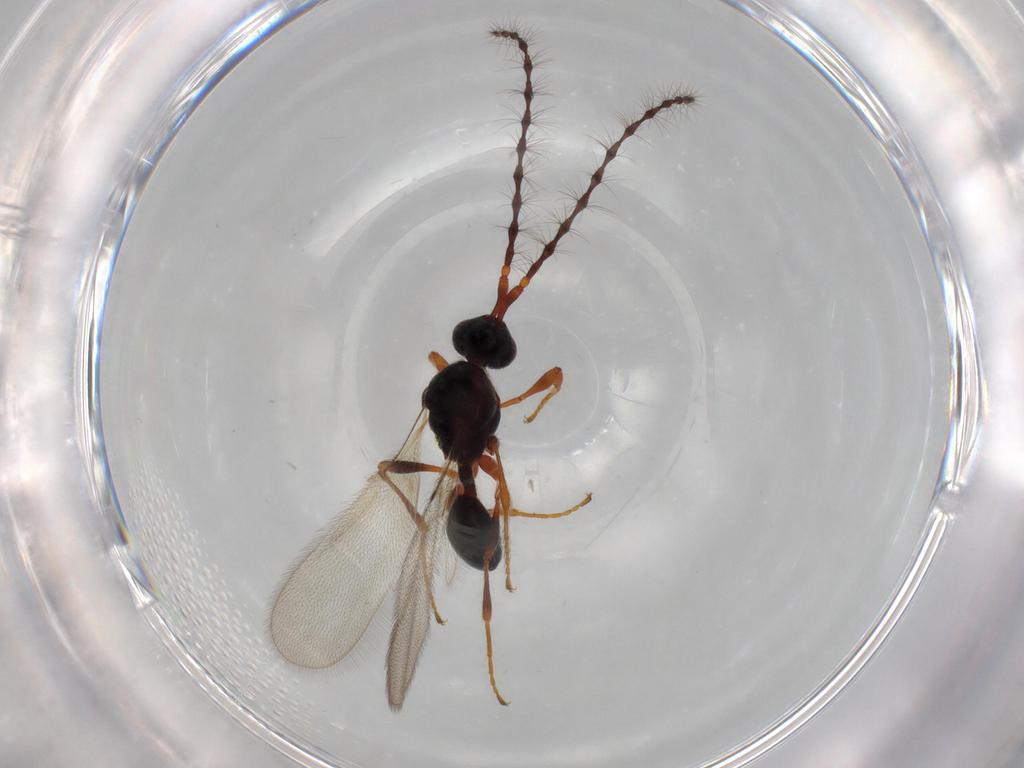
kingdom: Animalia
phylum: Arthropoda
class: Insecta
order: Hymenoptera
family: Diapriidae
